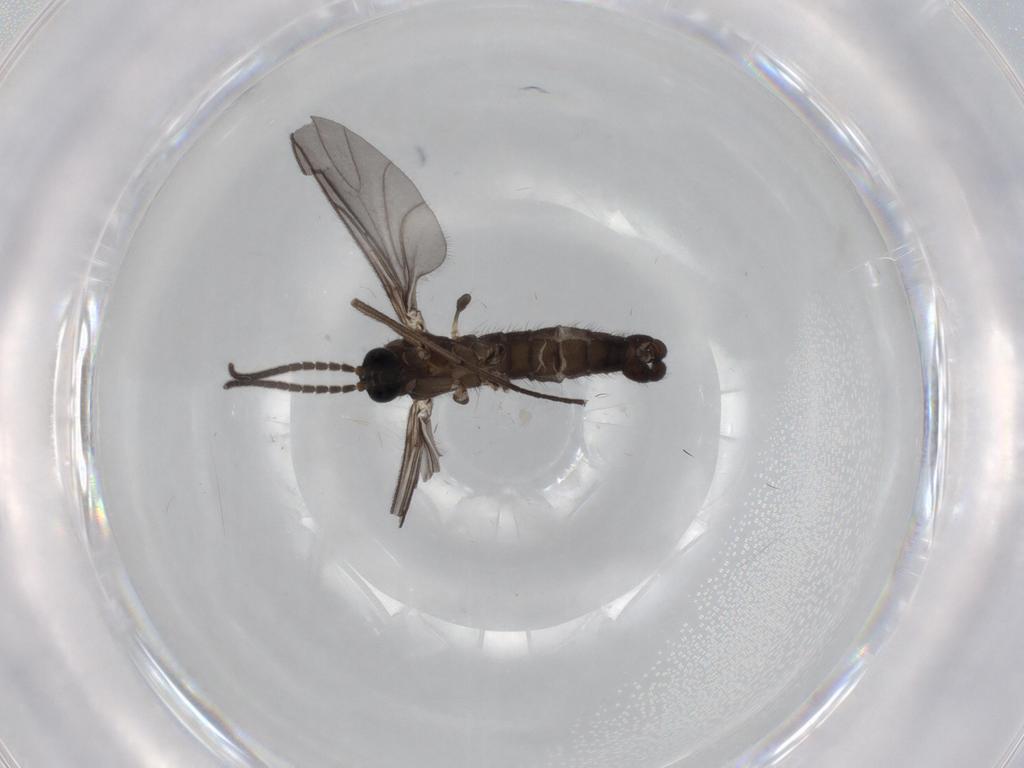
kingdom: Animalia
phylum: Arthropoda
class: Insecta
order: Diptera
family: Sciaridae
